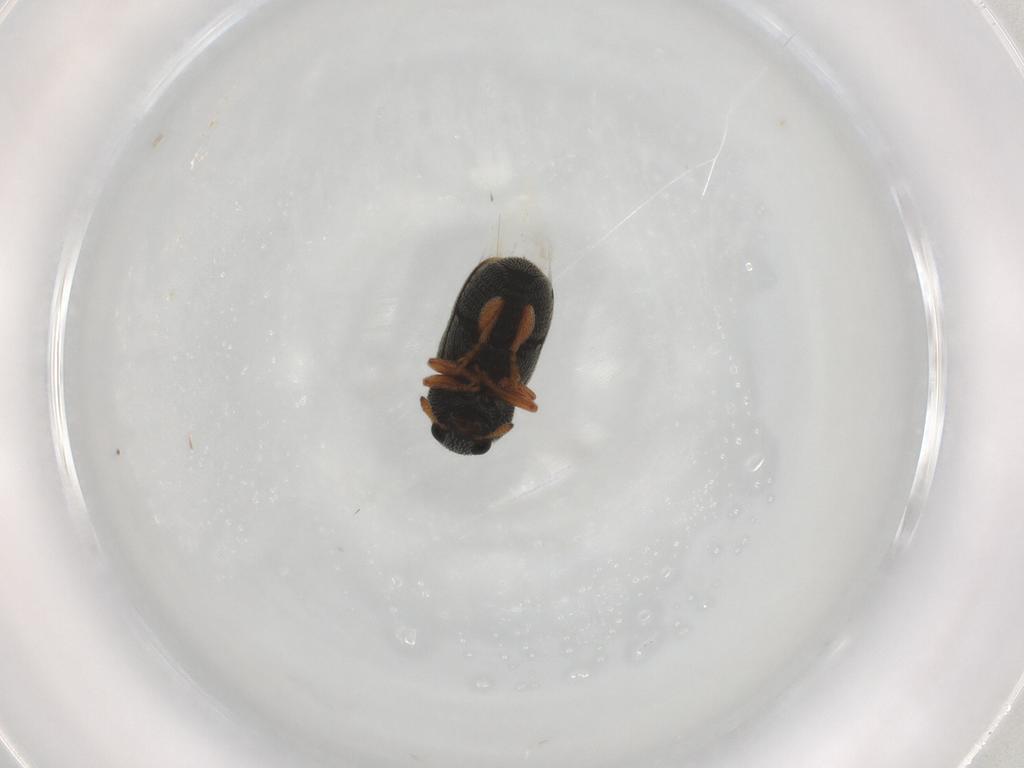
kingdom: Animalia
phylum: Arthropoda
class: Insecta
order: Coleoptera
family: Anthribidae
